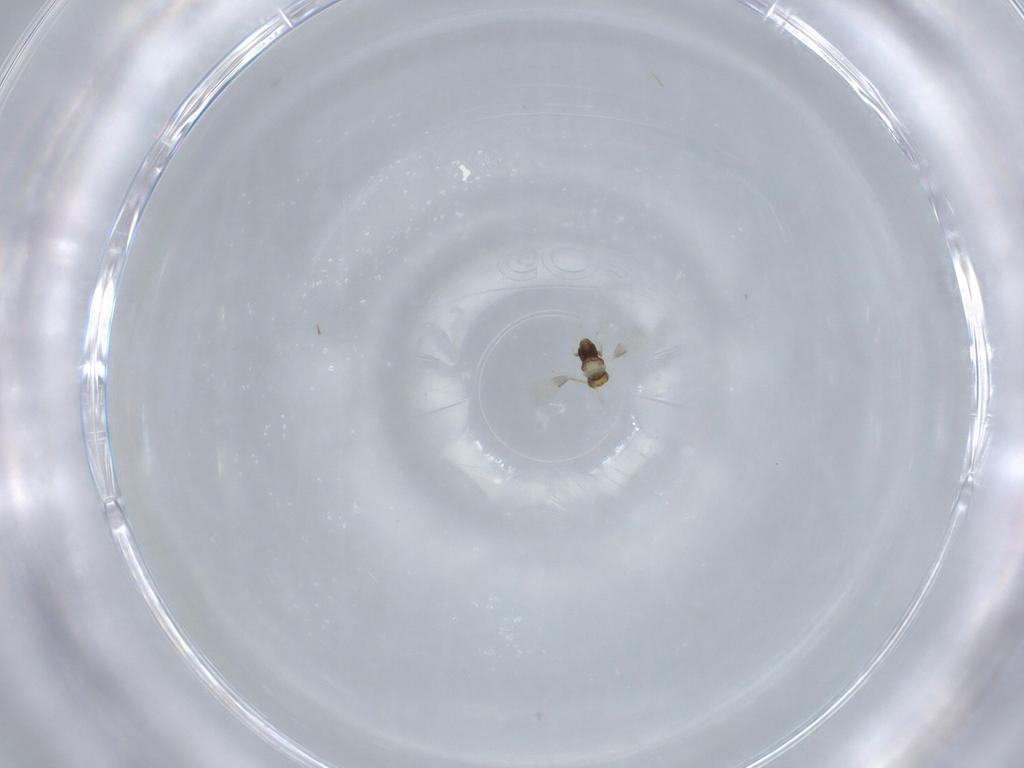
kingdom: Animalia
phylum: Arthropoda
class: Insecta
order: Hymenoptera
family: Aphelinidae
